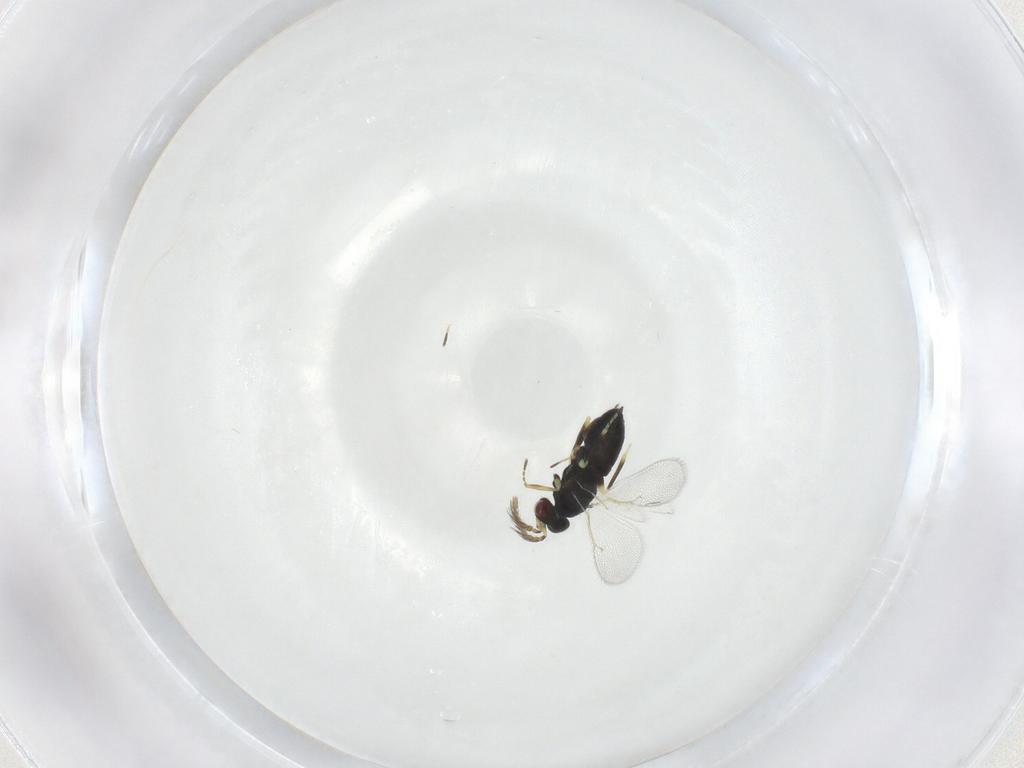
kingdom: Animalia
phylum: Arthropoda
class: Insecta
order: Hymenoptera
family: Eulophidae
